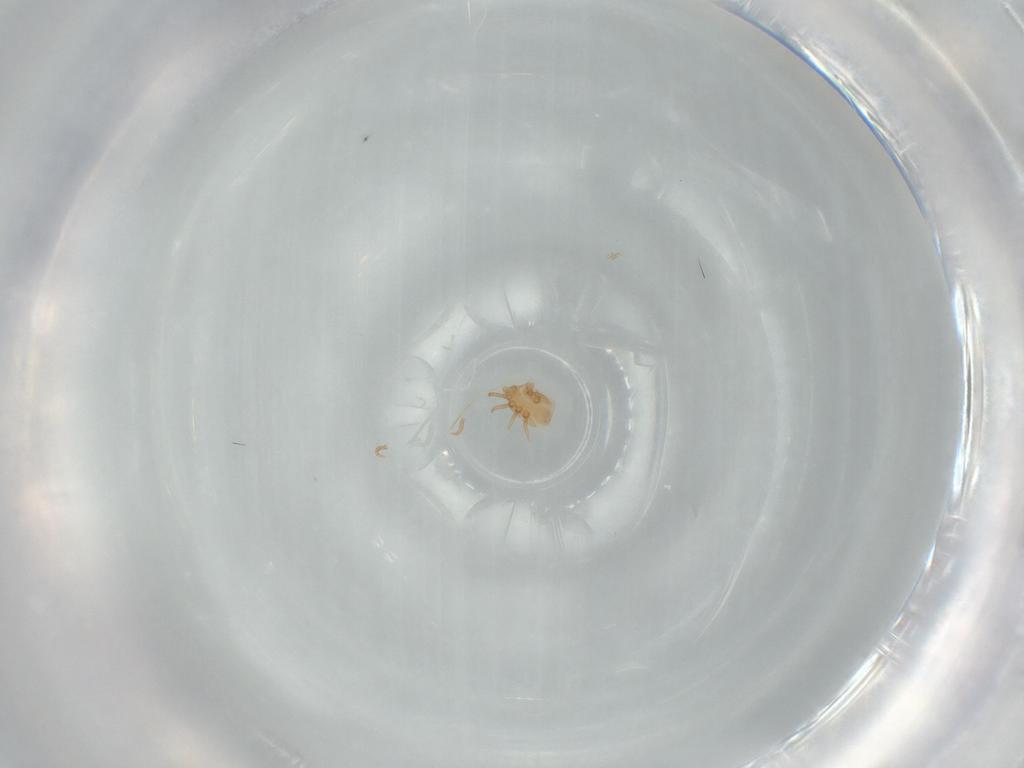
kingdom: Animalia
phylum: Arthropoda
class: Arachnida
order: Mesostigmata
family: Dinychidae
